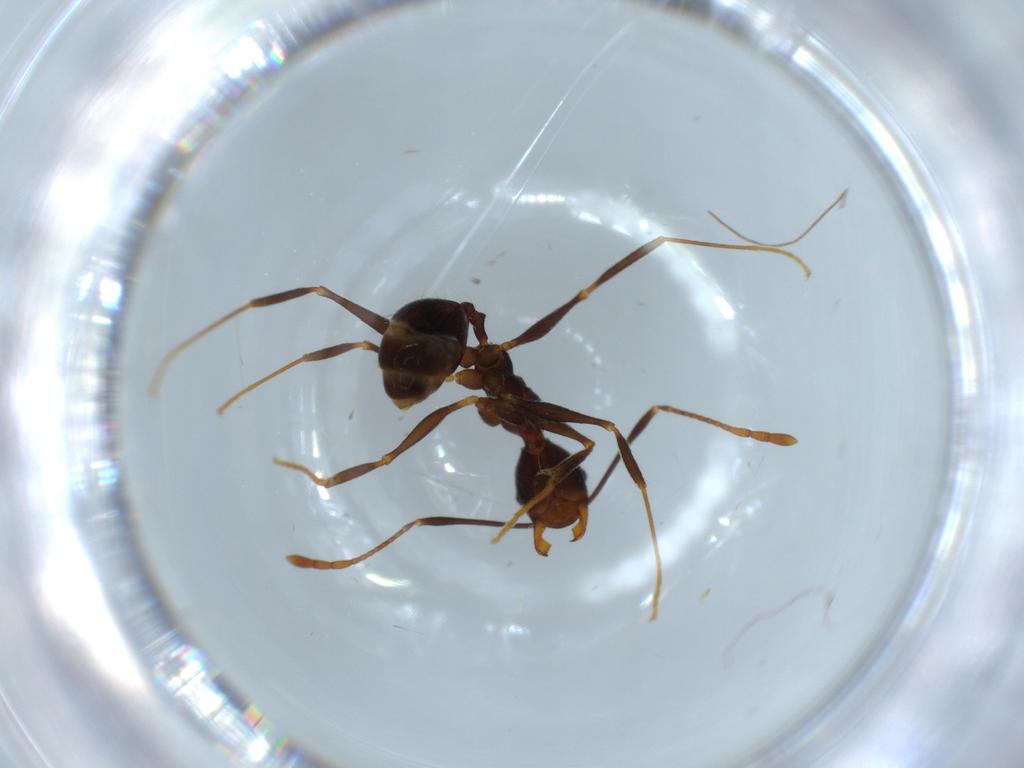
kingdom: Animalia
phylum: Arthropoda
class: Insecta
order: Hymenoptera
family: Formicidae
